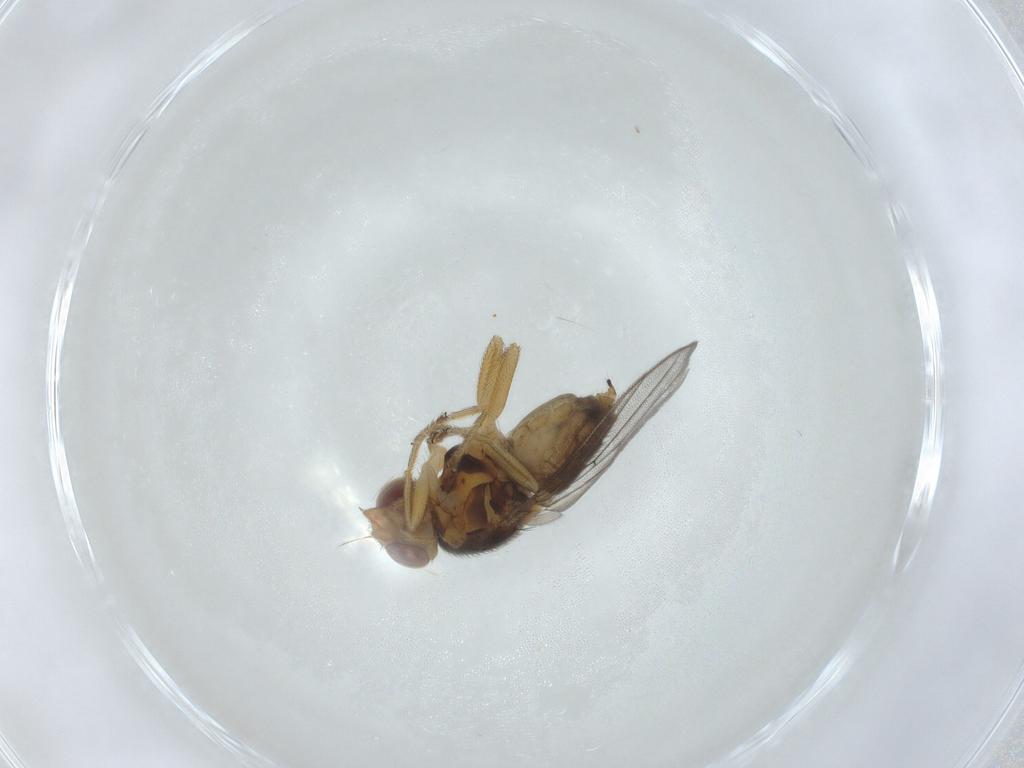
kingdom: Animalia
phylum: Arthropoda
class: Insecta
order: Diptera
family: Chloropidae
